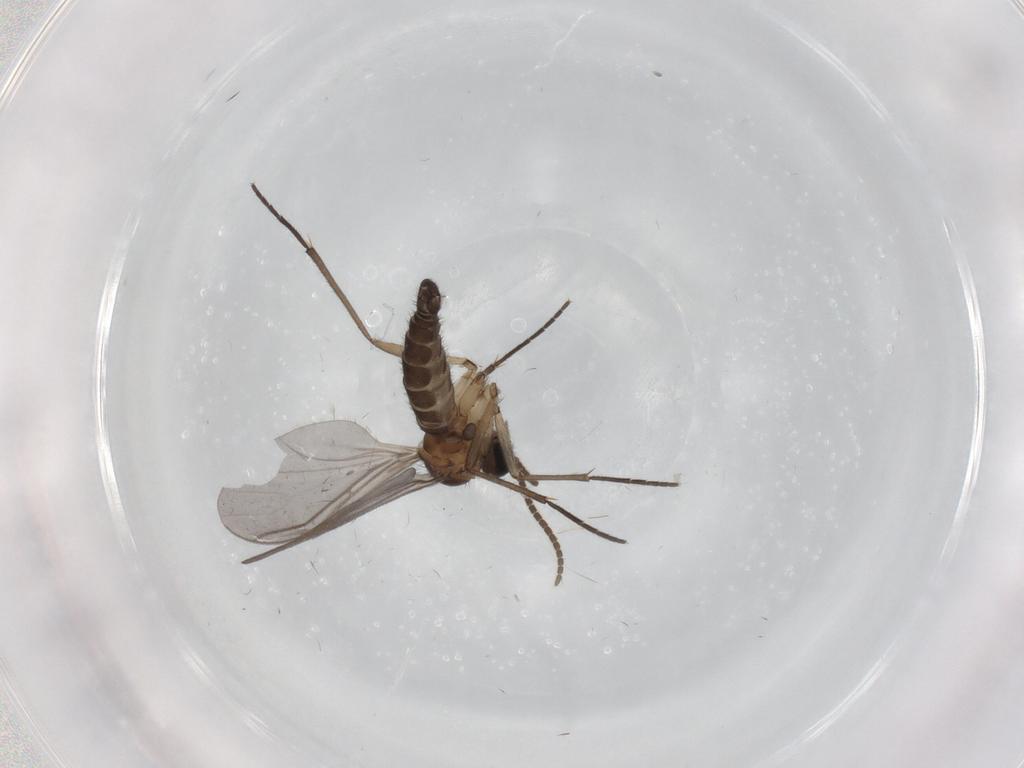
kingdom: Animalia
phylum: Arthropoda
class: Insecta
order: Diptera
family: Cecidomyiidae
